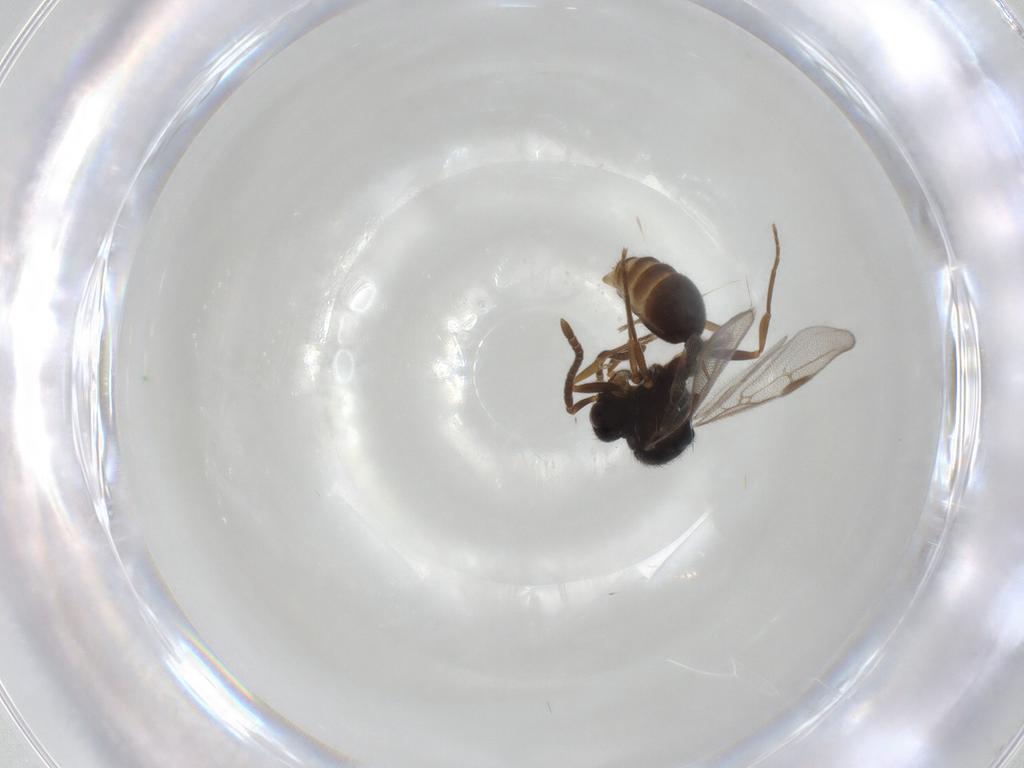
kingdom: Animalia
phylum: Arthropoda
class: Insecta
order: Hymenoptera
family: Formicidae
